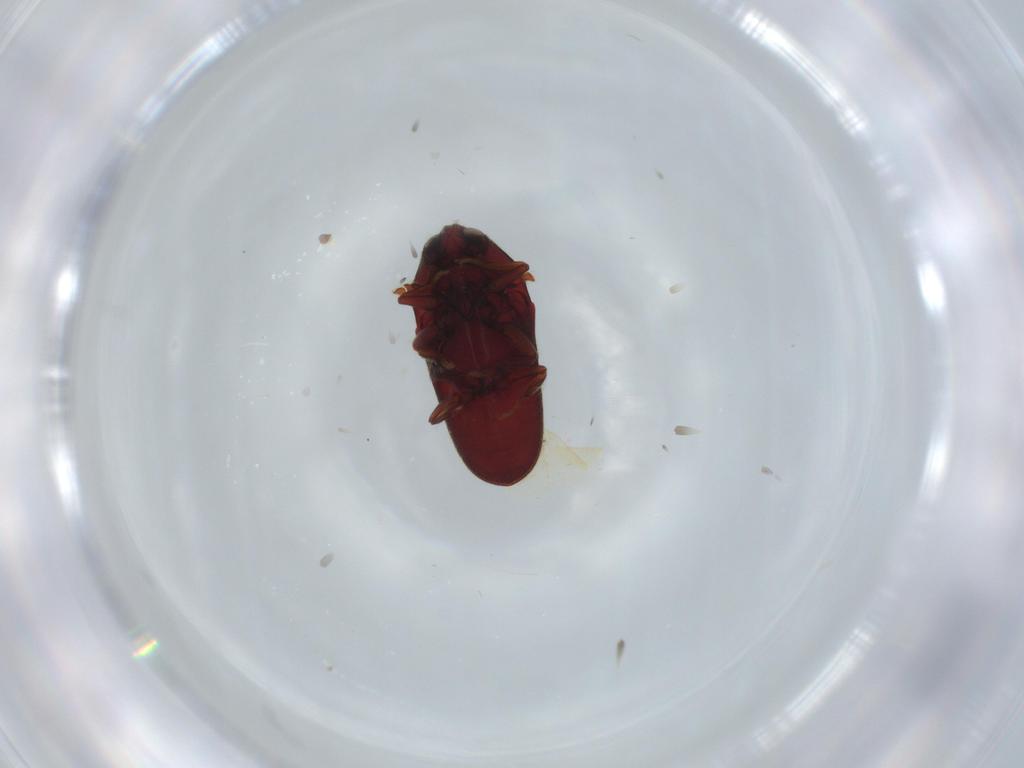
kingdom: Animalia
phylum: Arthropoda
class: Insecta
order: Coleoptera
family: Throscidae
